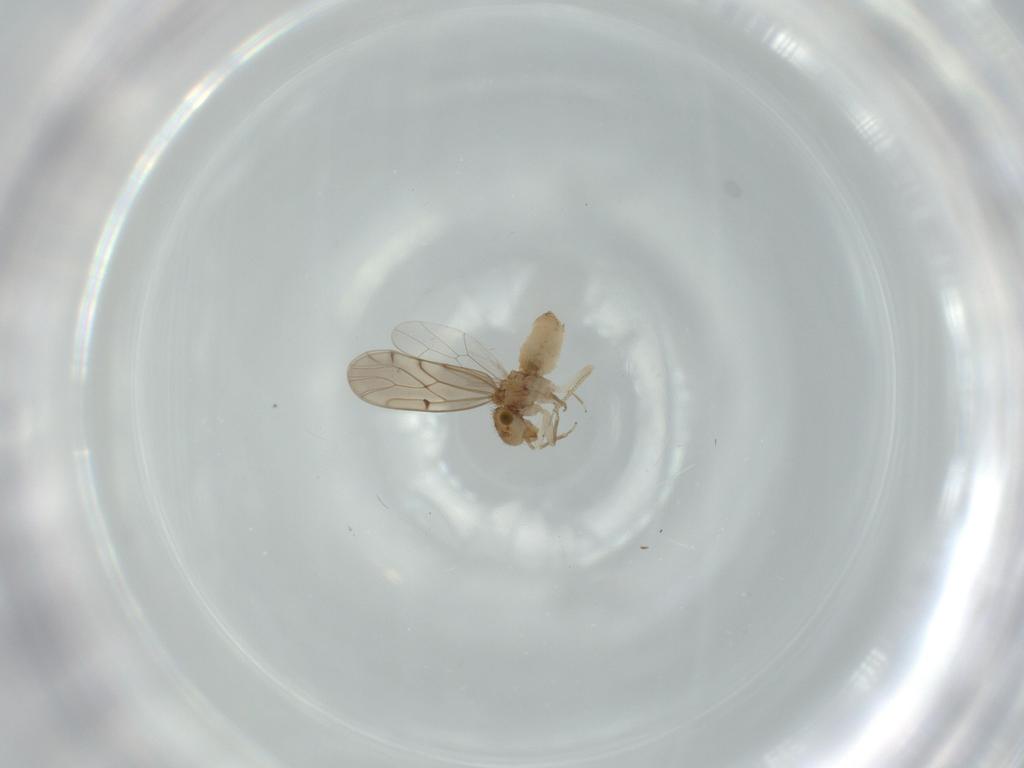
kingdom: Animalia
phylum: Arthropoda
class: Insecta
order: Psocodea
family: Ectopsocidae
